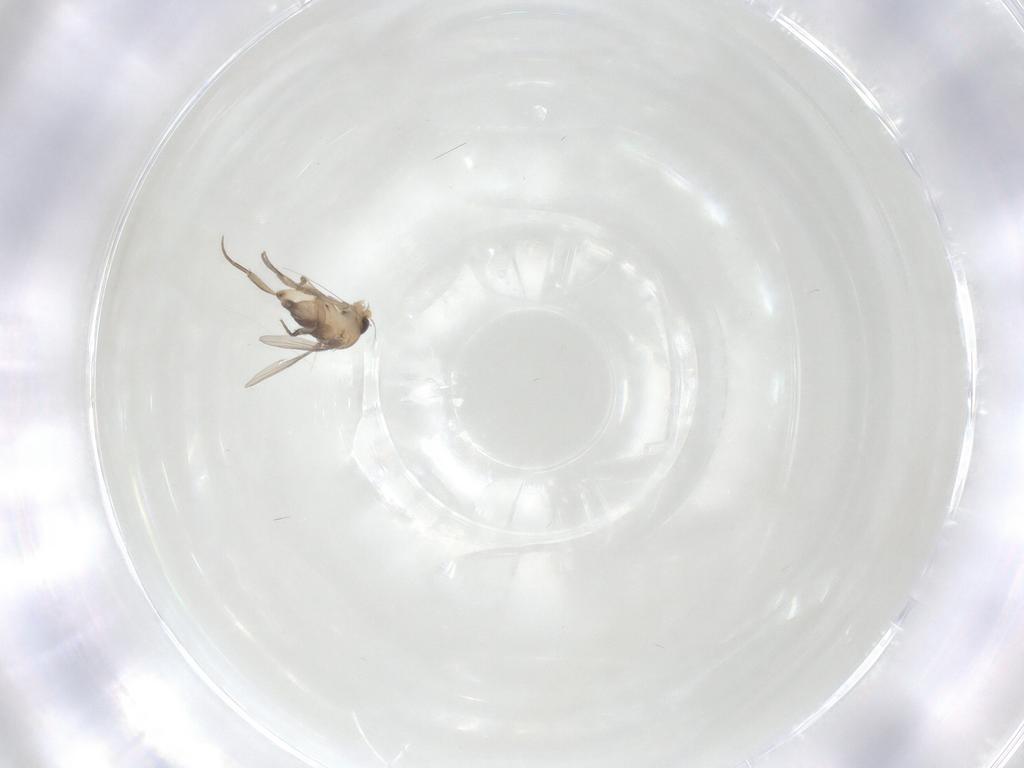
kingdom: Animalia
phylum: Arthropoda
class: Insecta
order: Diptera
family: Phoridae
